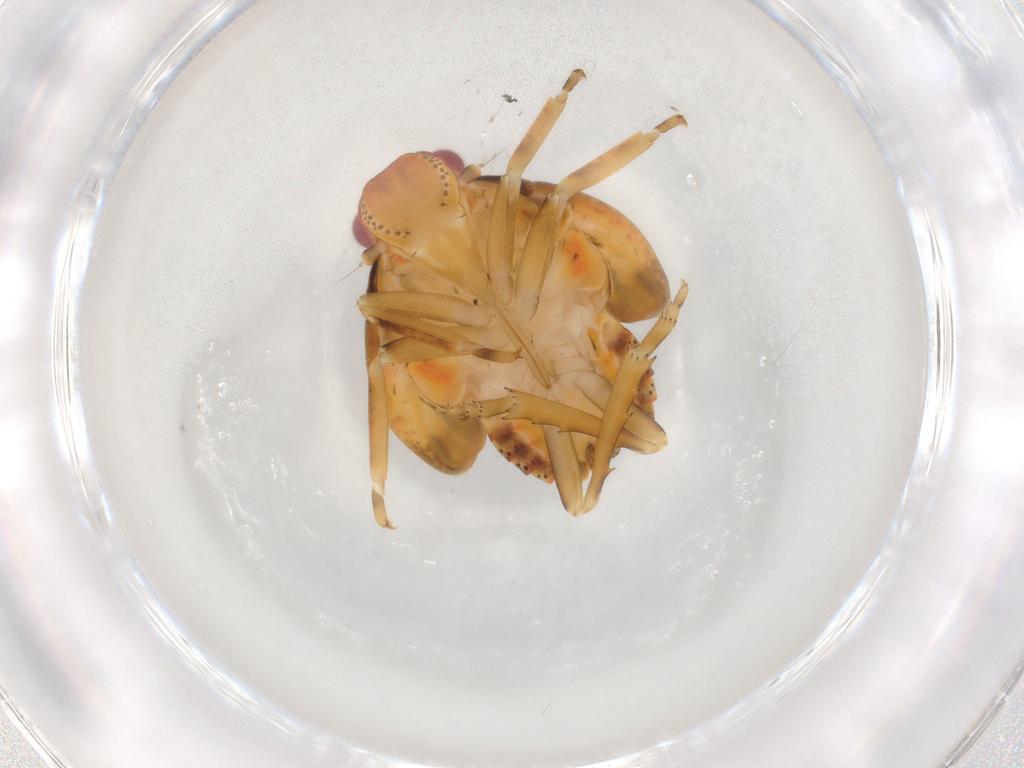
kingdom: Animalia
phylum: Arthropoda
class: Insecta
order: Hemiptera
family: Flatidae
